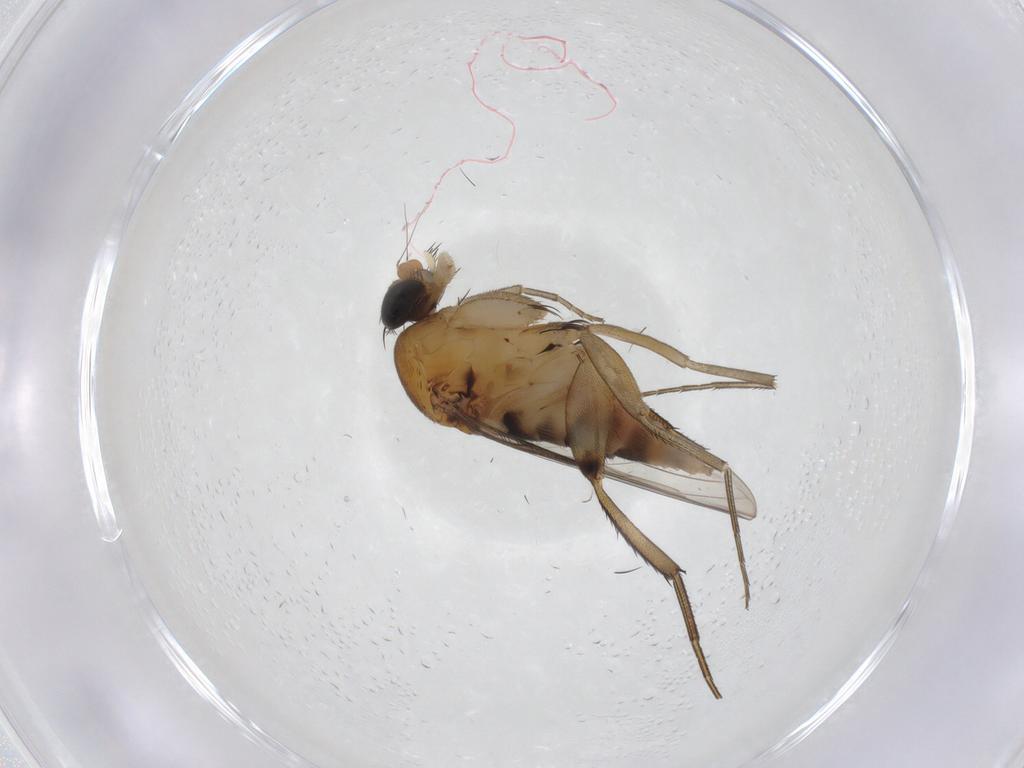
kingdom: Animalia
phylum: Arthropoda
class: Insecta
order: Diptera
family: Phoridae
